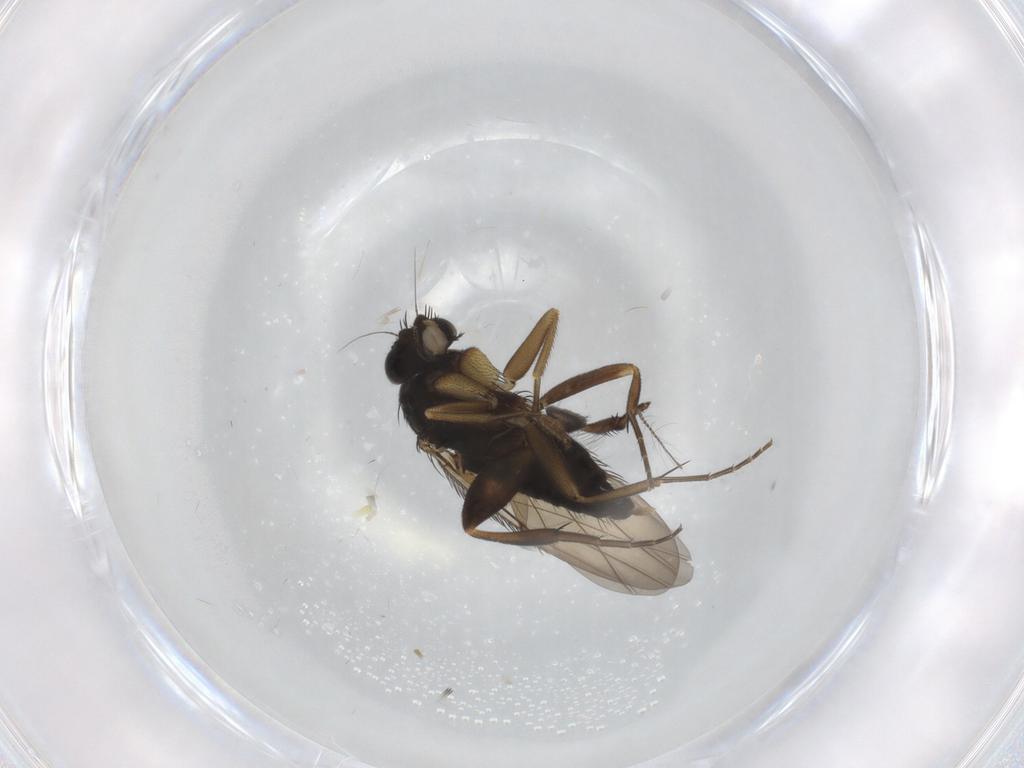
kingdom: Animalia
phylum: Arthropoda
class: Insecta
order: Diptera
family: Phoridae
